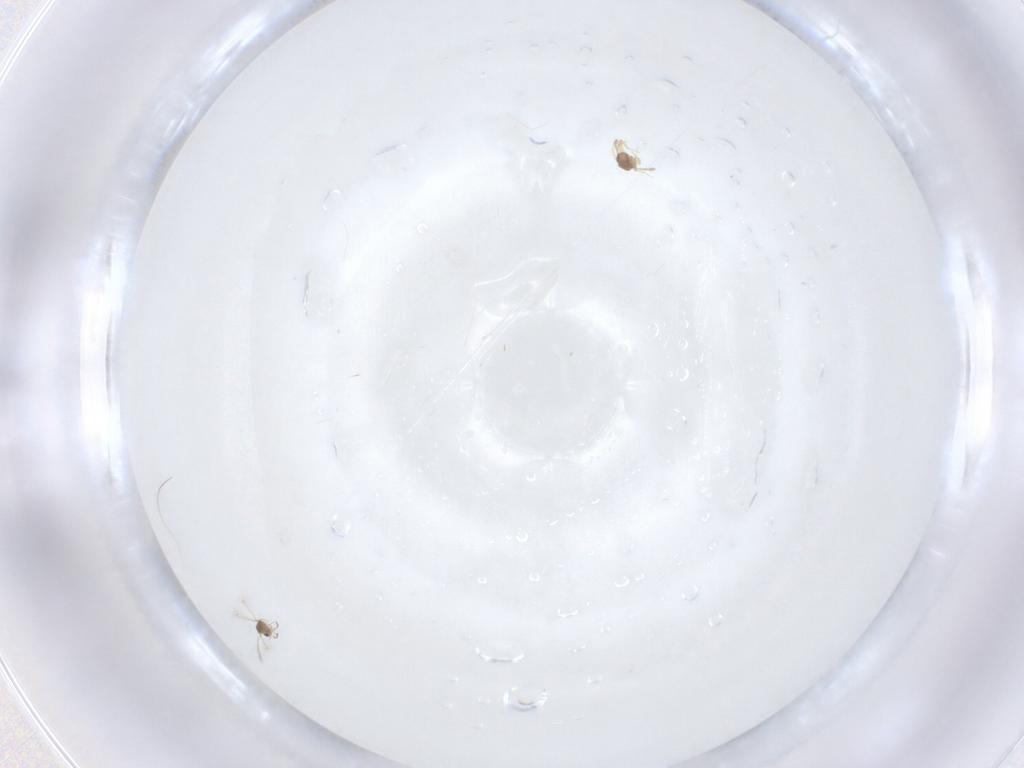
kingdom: Animalia
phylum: Arthropoda
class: Insecta
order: Hymenoptera
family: Mymaridae
